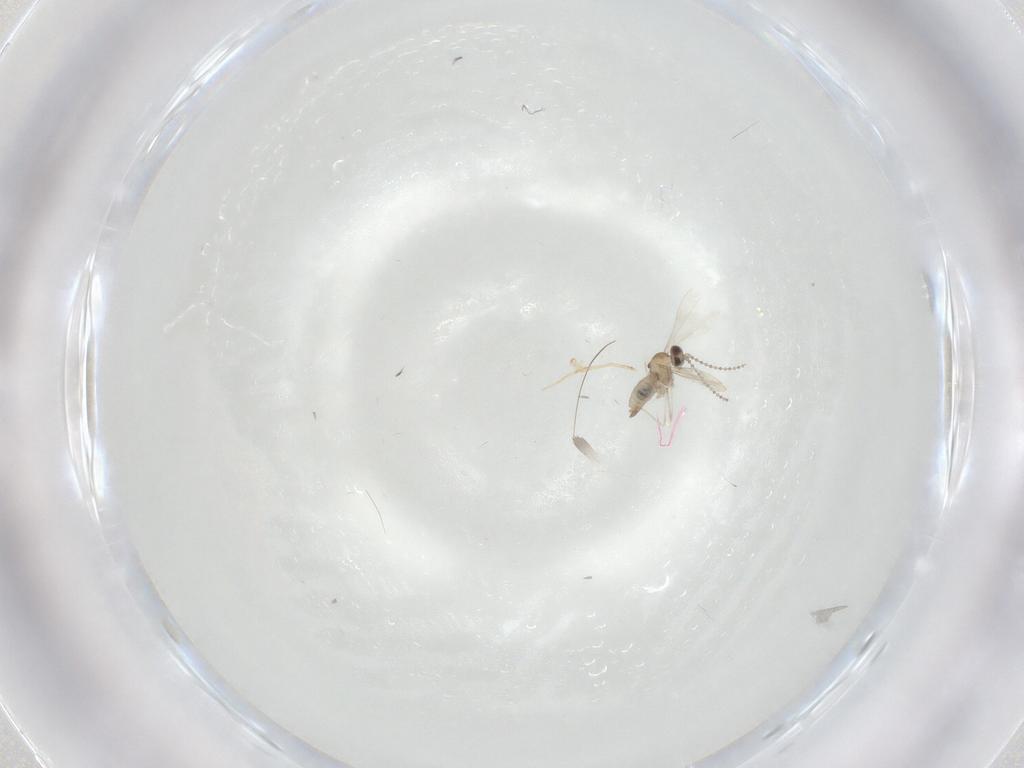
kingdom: Animalia
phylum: Arthropoda
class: Insecta
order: Diptera
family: Cecidomyiidae
